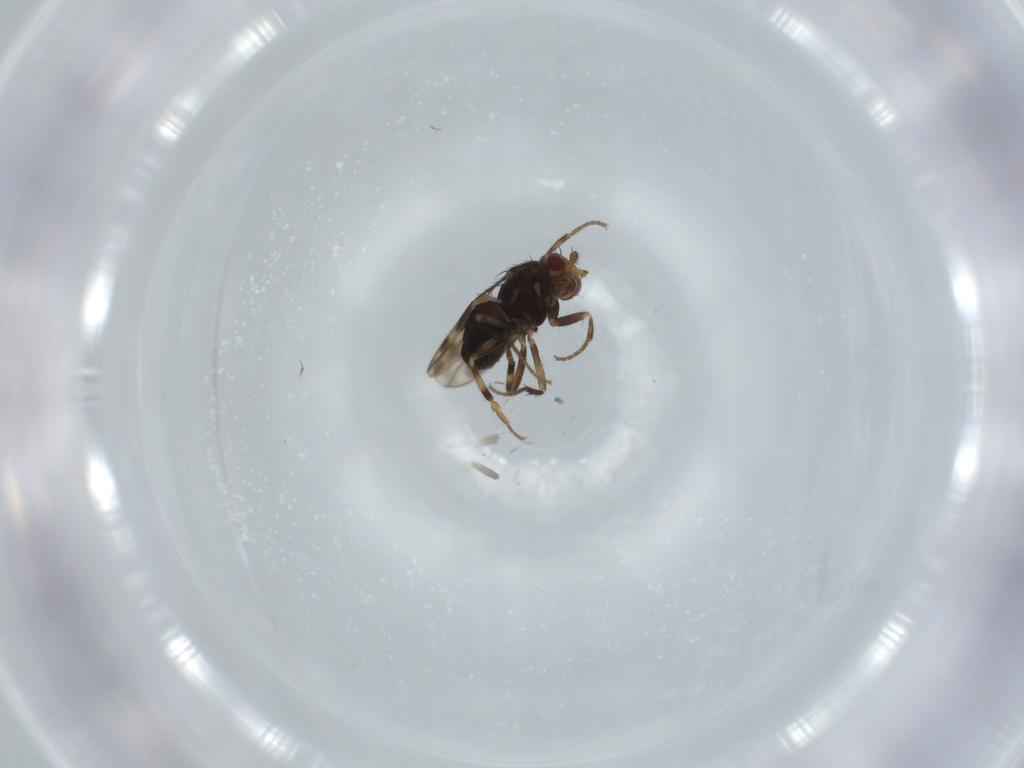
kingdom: Animalia
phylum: Arthropoda
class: Insecta
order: Diptera
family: Sphaeroceridae
